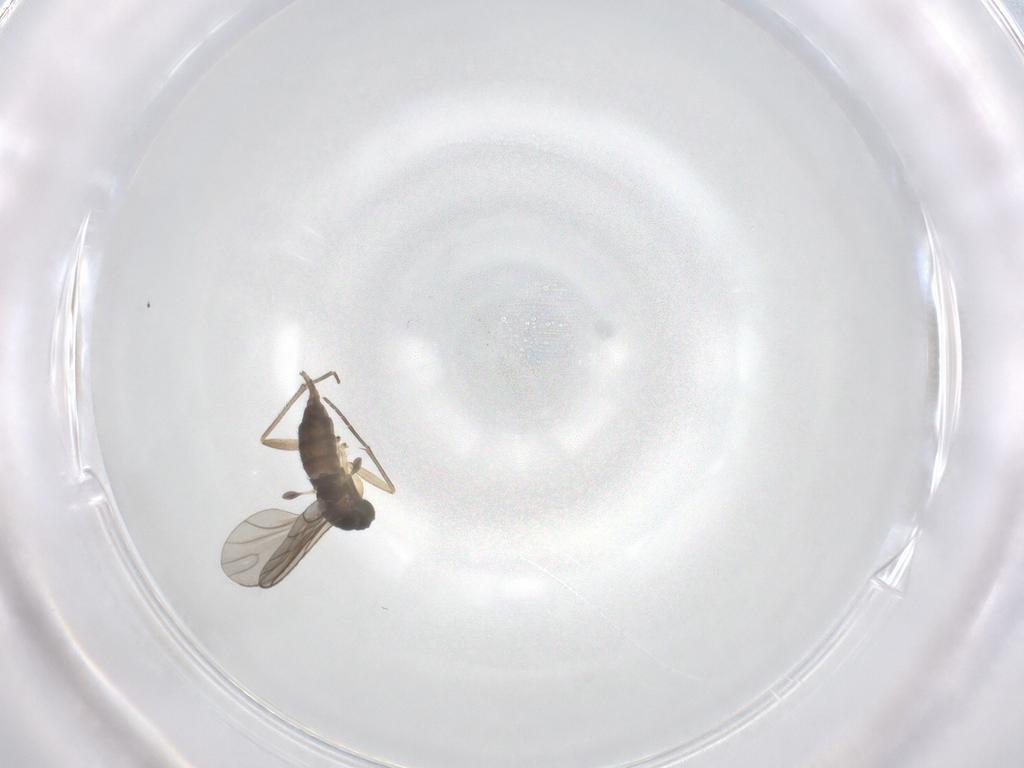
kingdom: Animalia
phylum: Arthropoda
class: Insecta
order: Diptera
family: Sciaridae
